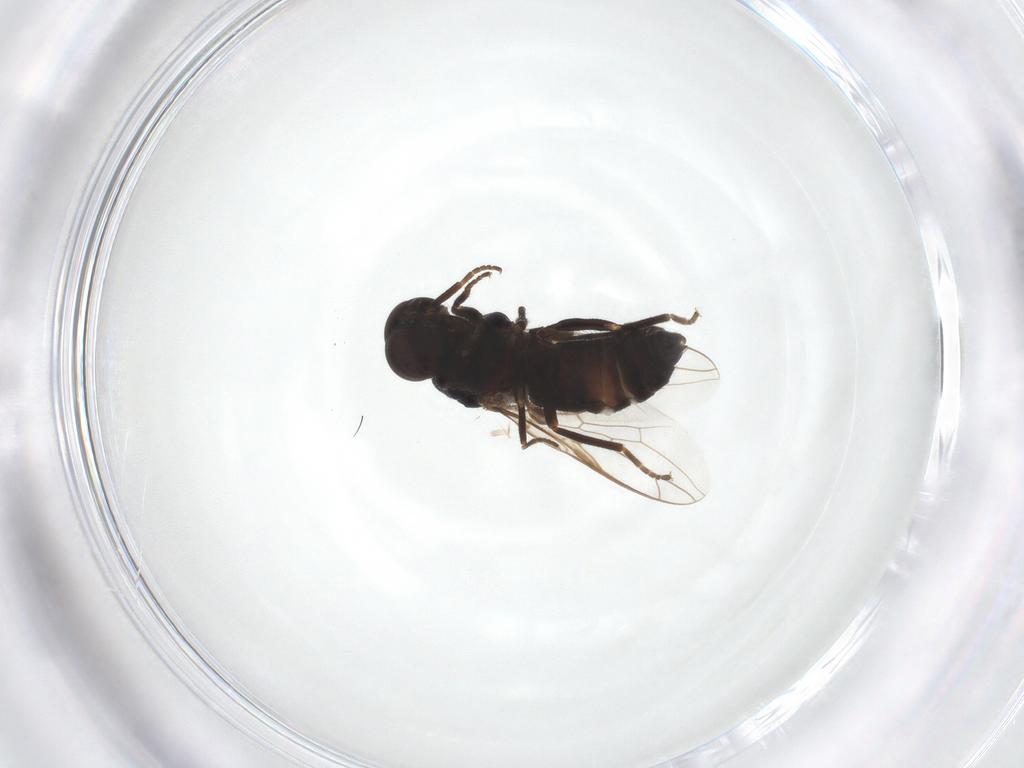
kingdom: Animalia
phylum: Arthropoda
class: Insecta
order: Diptera
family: Scenopinidae
